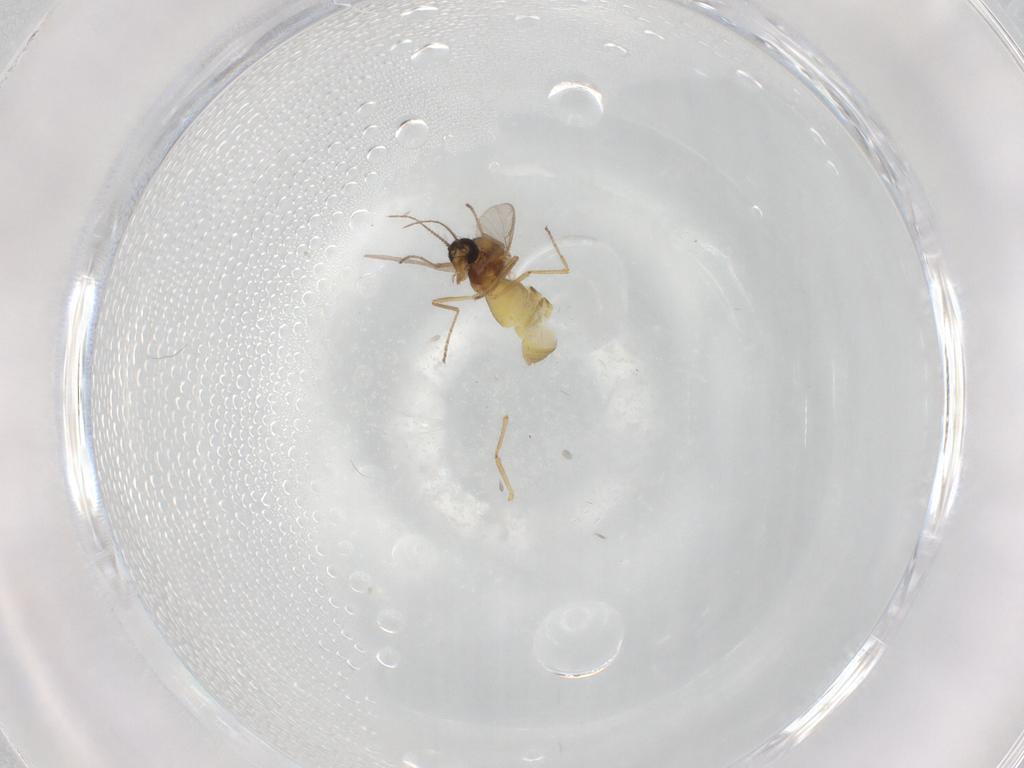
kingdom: Animalia
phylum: Arthropoda
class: Insecta
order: Diptera
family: Ceratopogonidae
